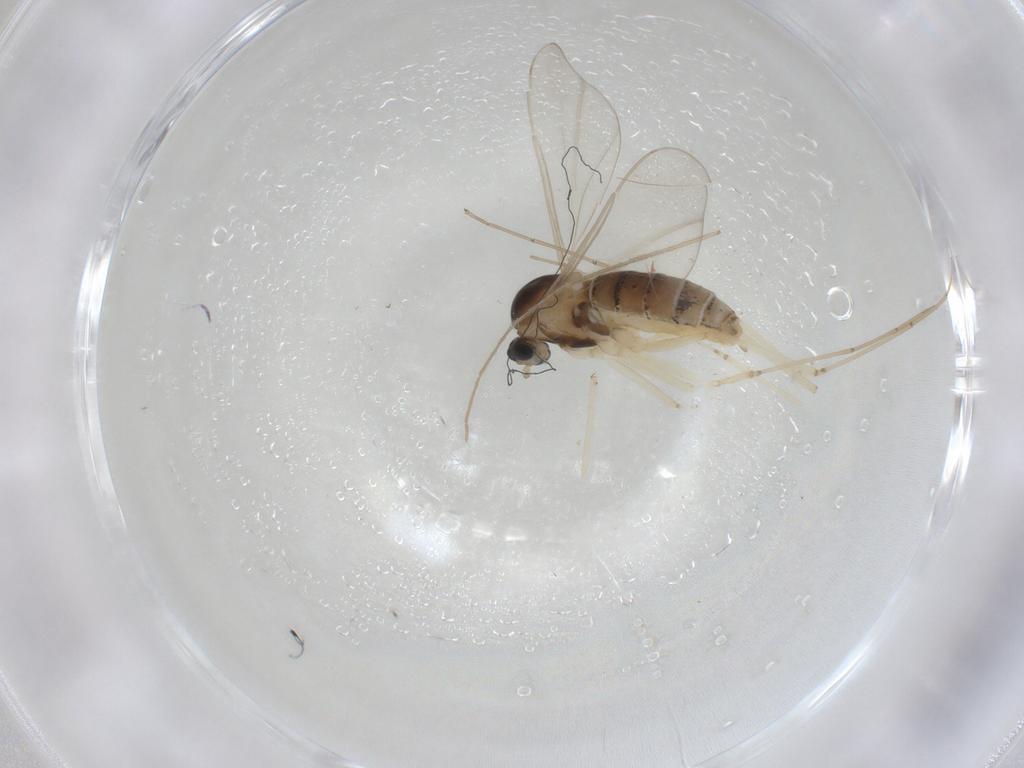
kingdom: Animalia
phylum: Arthropoda
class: Insecta
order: Diptera
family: Cecidomyiidae
